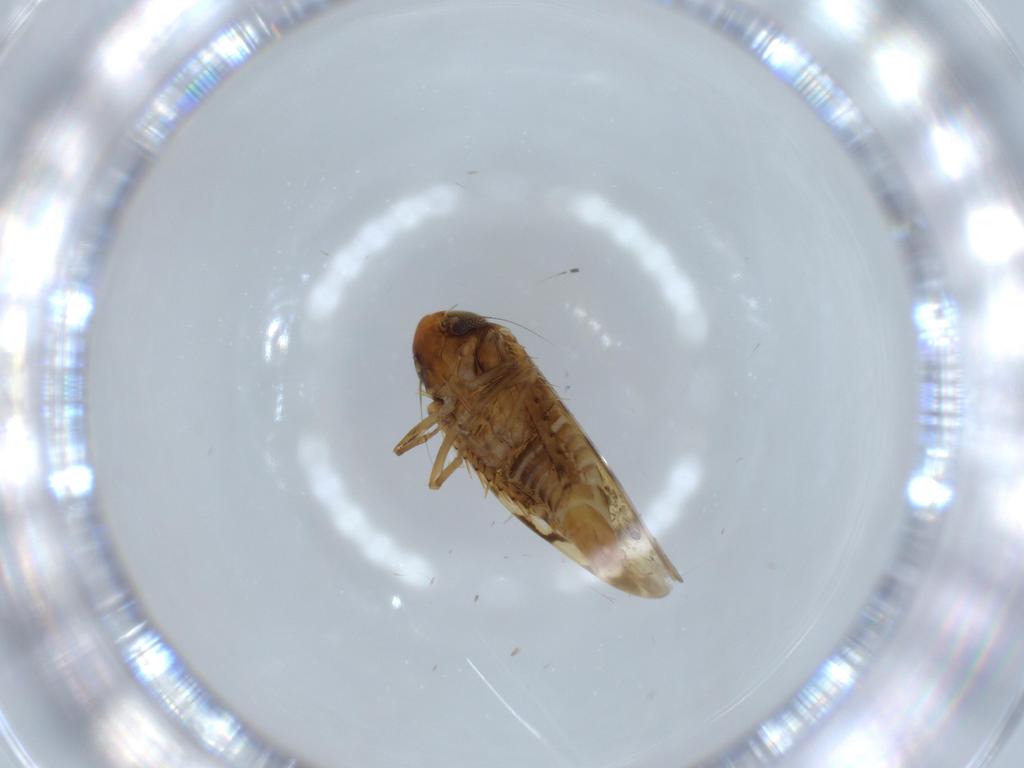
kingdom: Animalia
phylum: Arthropoda
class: Insecta
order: Hemiptera
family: Cicadellidae
